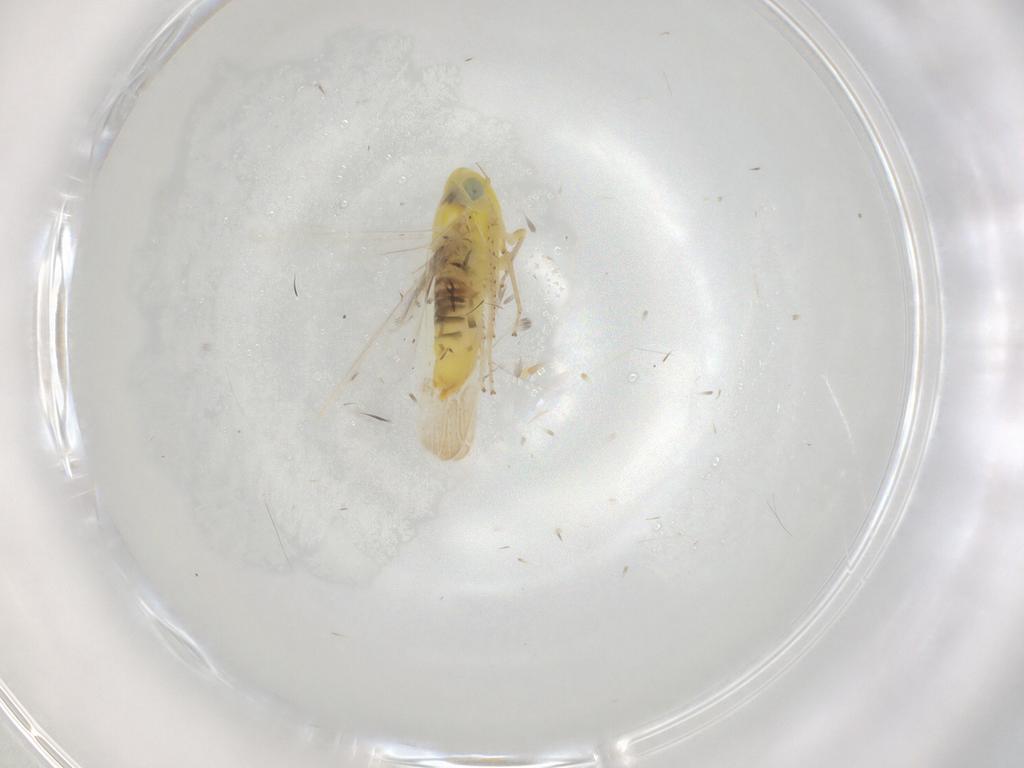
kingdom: Animalia
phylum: Arthropoda
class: Insecta
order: Hemiptera
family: Cicadellidae
